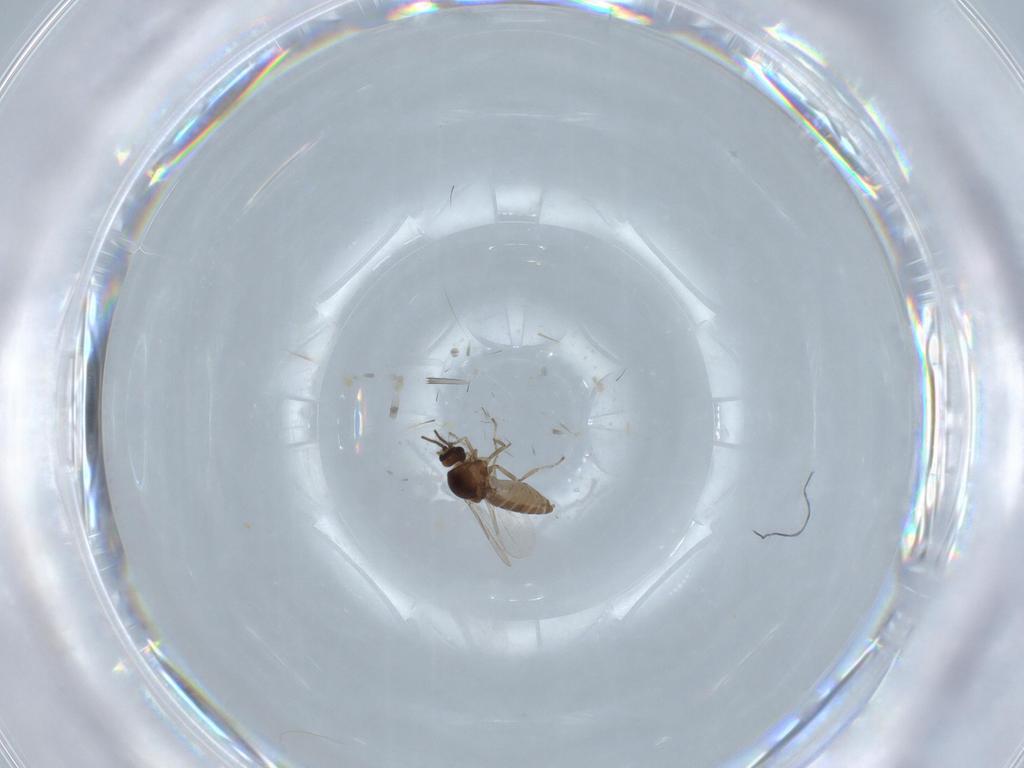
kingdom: Animalia
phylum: Arthropoda
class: Insecta
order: Diptera
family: Ceratopogonidae
